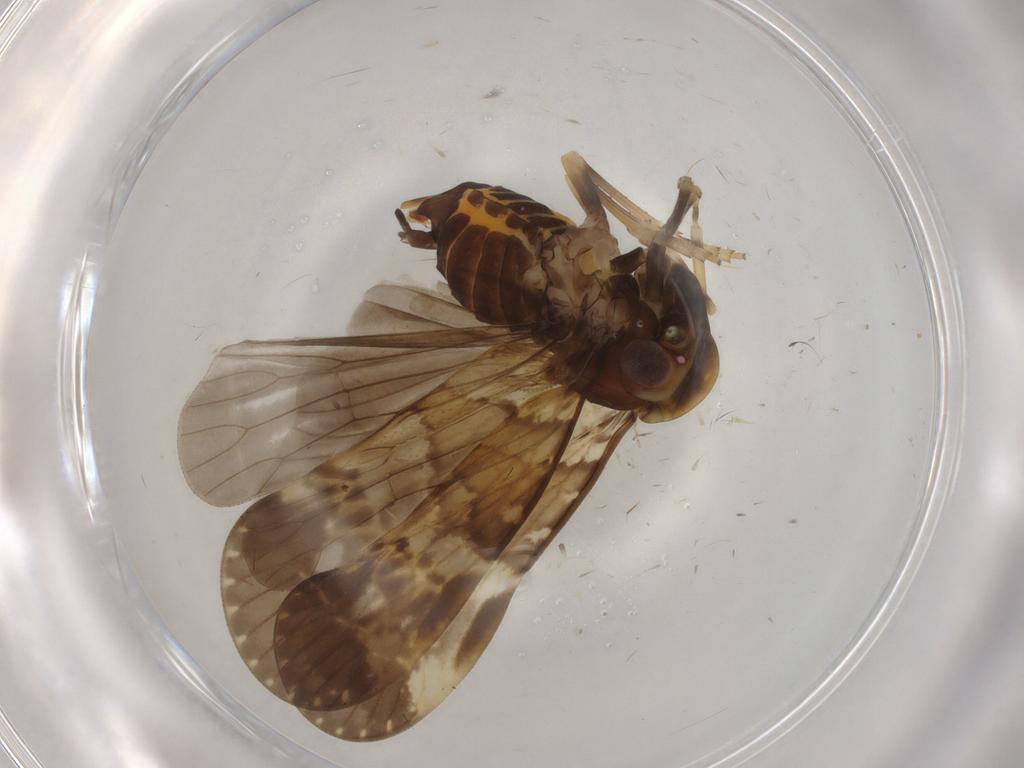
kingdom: Animalia
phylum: Arthropoda
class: Insecta
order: Hemiptera
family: Cixiidae
